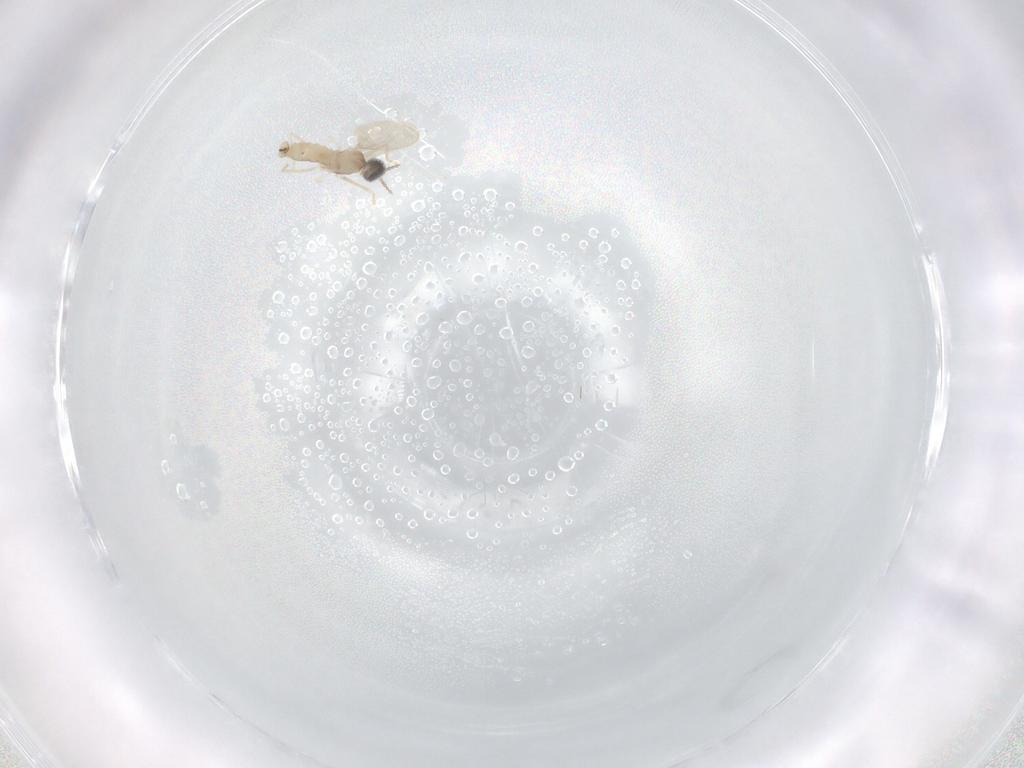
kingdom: Animalia
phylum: Arthropoda
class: Insecta
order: Diptera
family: Cecidomyiidae
